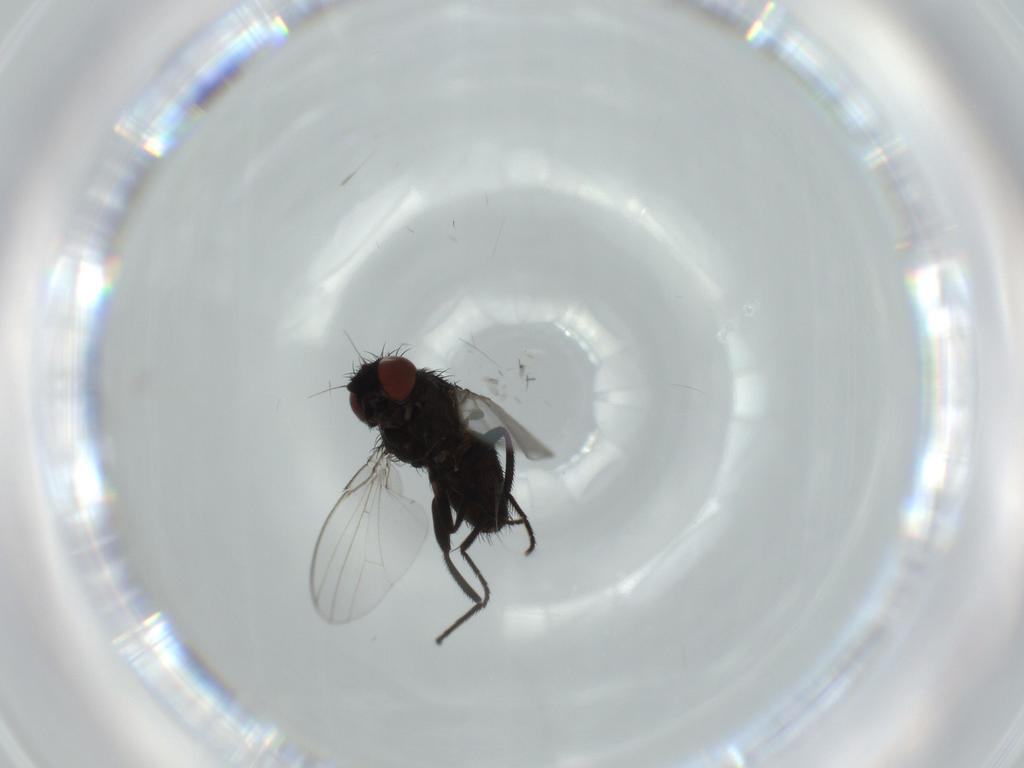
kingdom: Animalia
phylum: Arthropoda
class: Insecta
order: Diptera
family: Milichiidae
